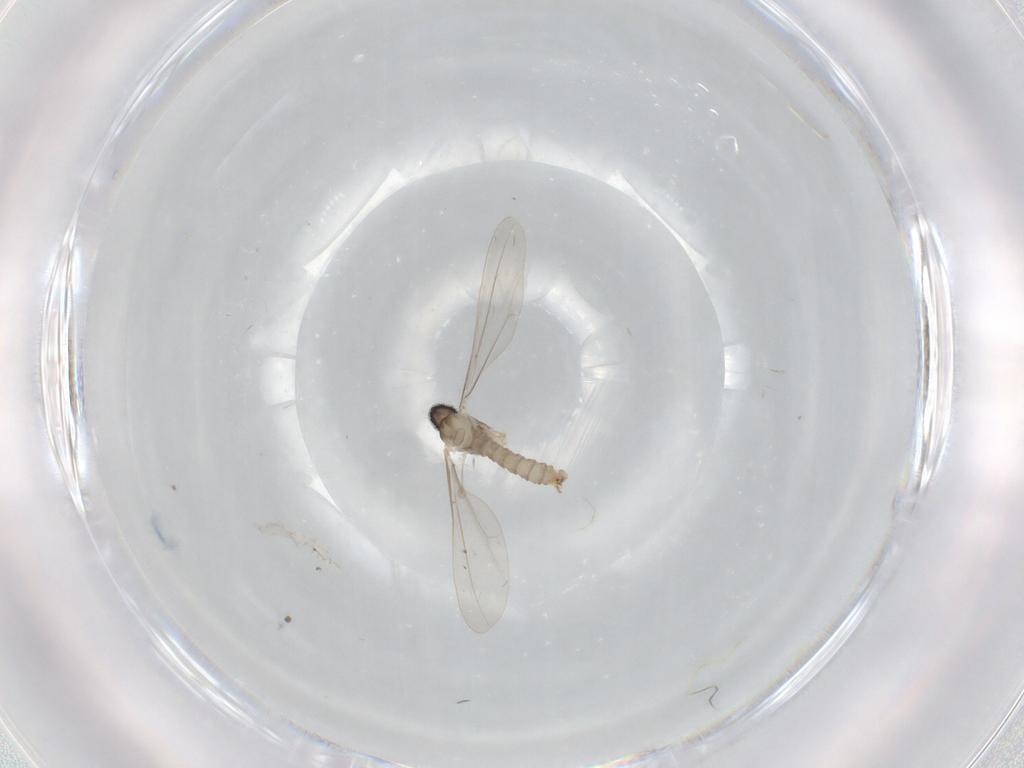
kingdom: Animalia
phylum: Arthropoda
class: Insecta
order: Diptera
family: Cecidomyiidae
